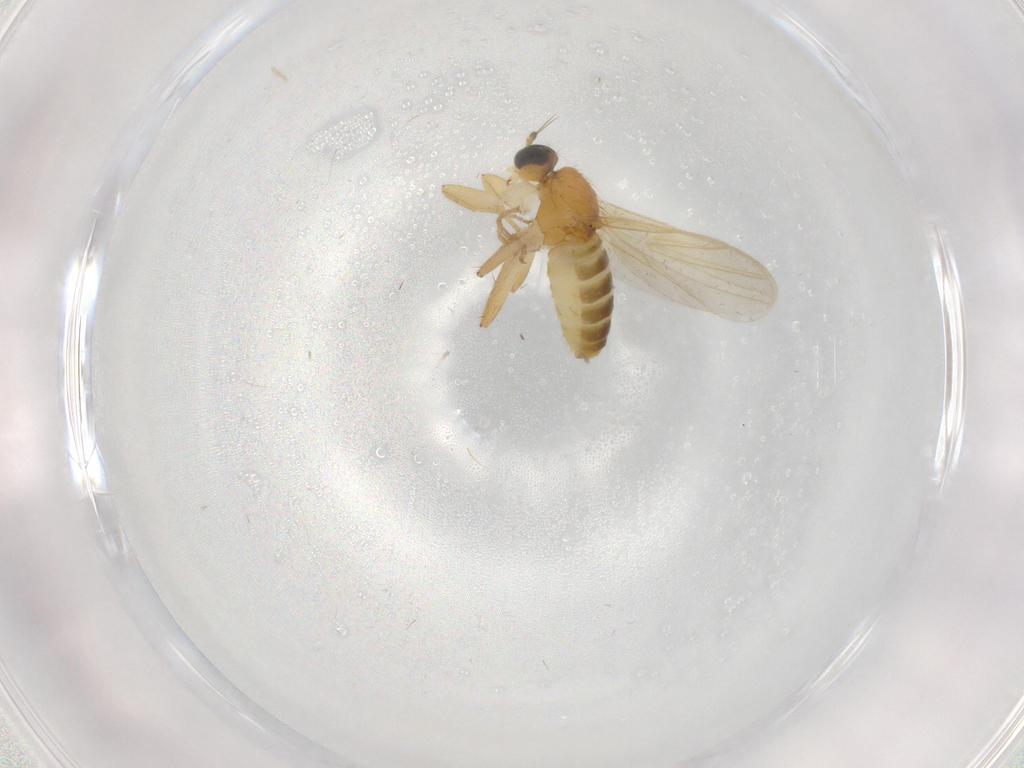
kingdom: Animalia
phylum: Arthropoda
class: Insecta
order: Diptera
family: Hybotidae
